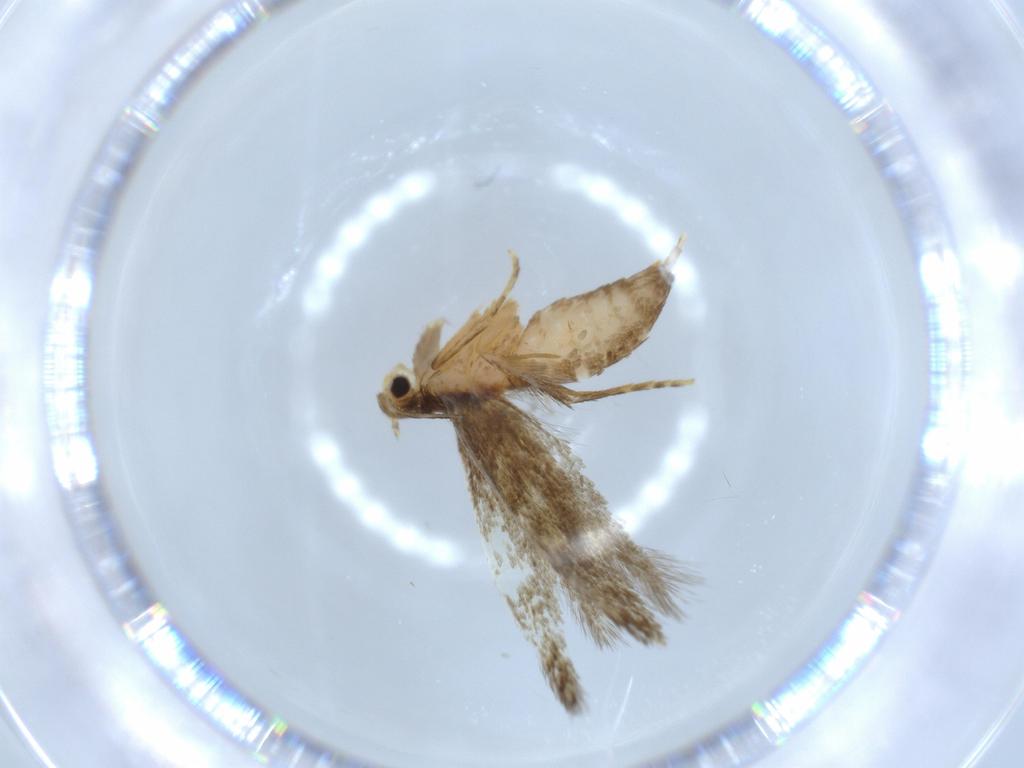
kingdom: Animalia
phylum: Arthropoda
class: Insecta
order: Lepidoptera
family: Tineidae
